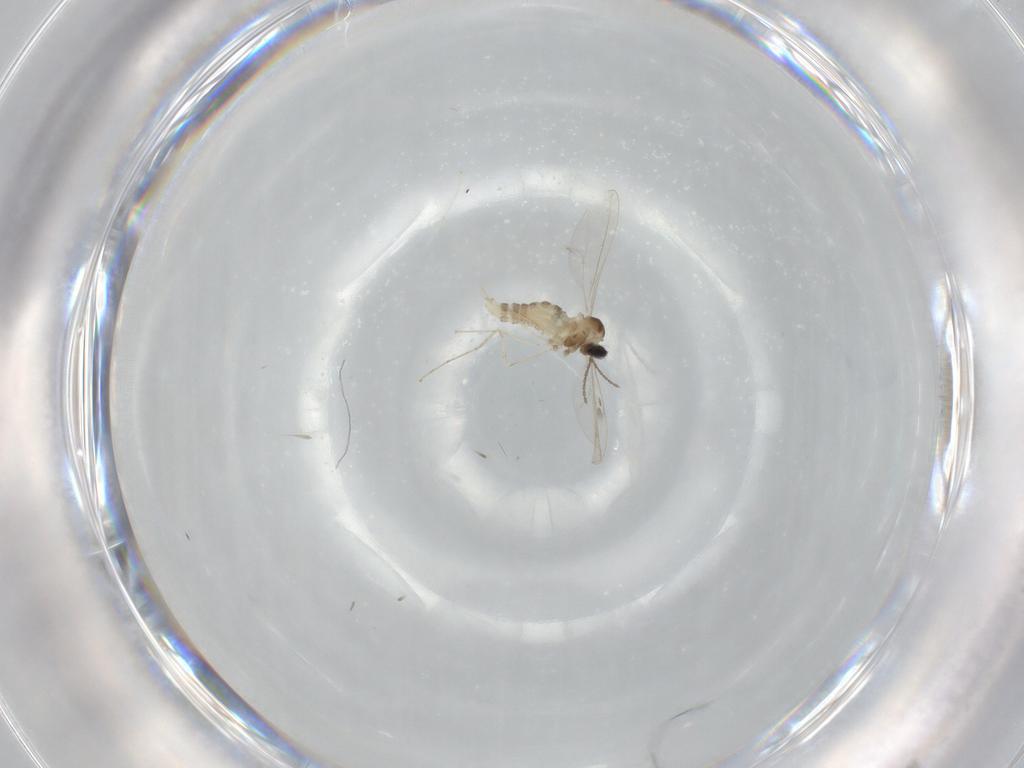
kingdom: Animalia
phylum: Arthropoda
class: Insecta
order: Diptera
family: Cecidomyiidae
